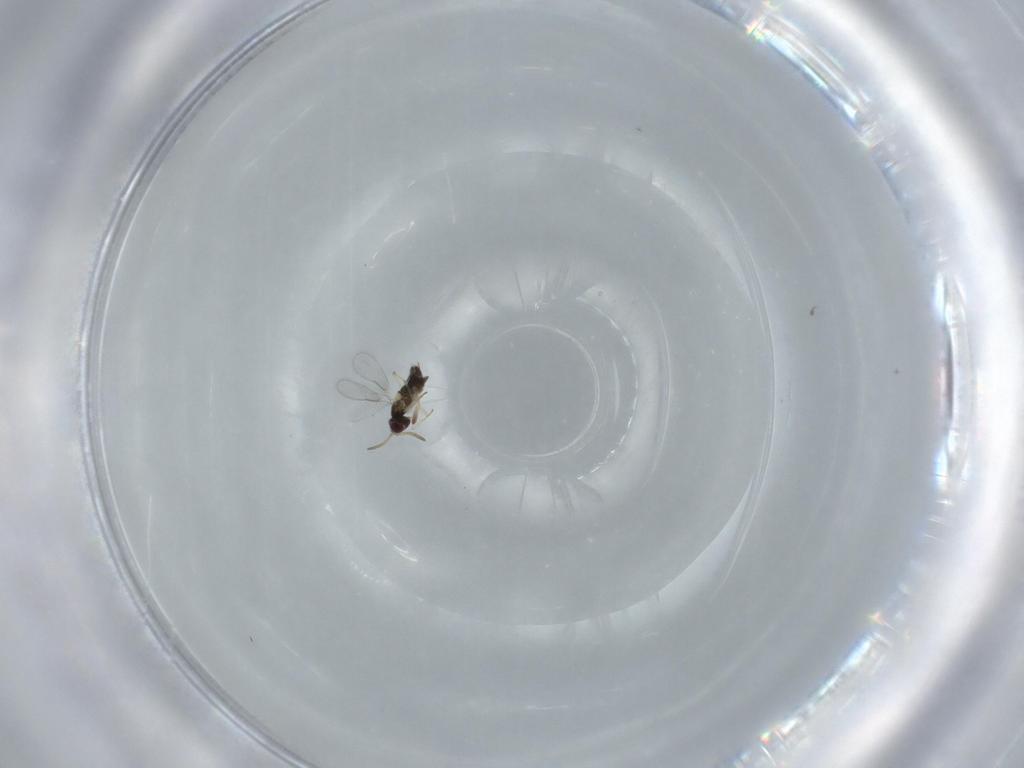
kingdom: Animalia
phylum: Arthropoda
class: Insecta
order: Hymenoptera
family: Aphelinidae
